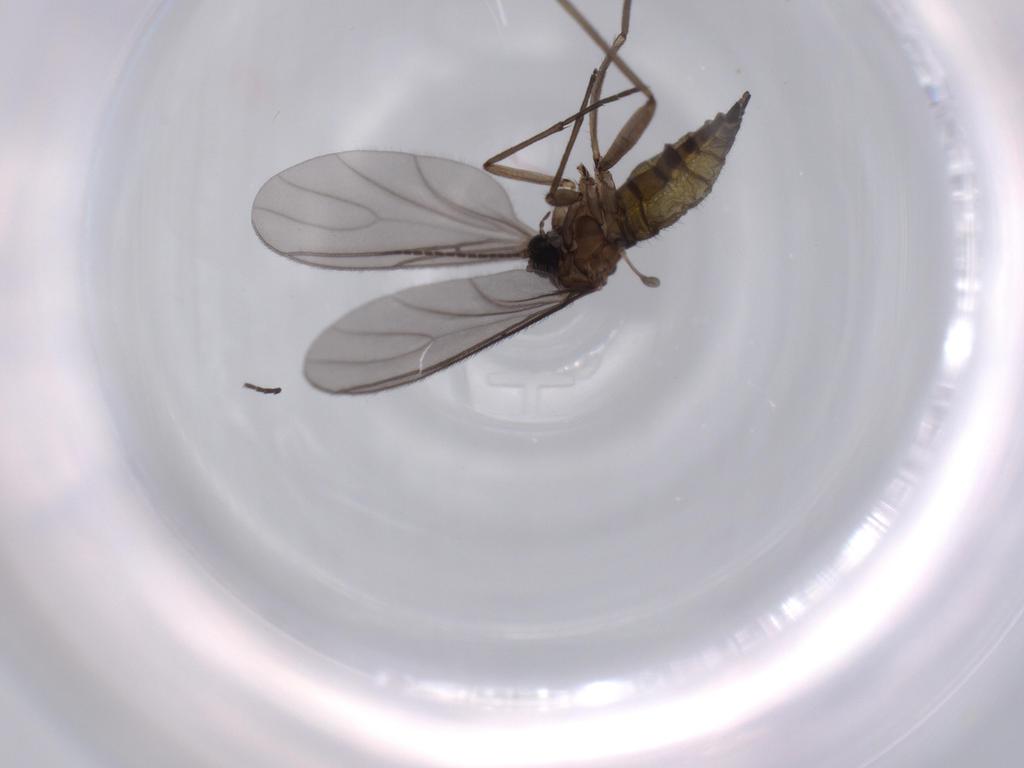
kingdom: Animalia
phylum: Arthropoda
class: Insecta
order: Diptera
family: Sciaridae
